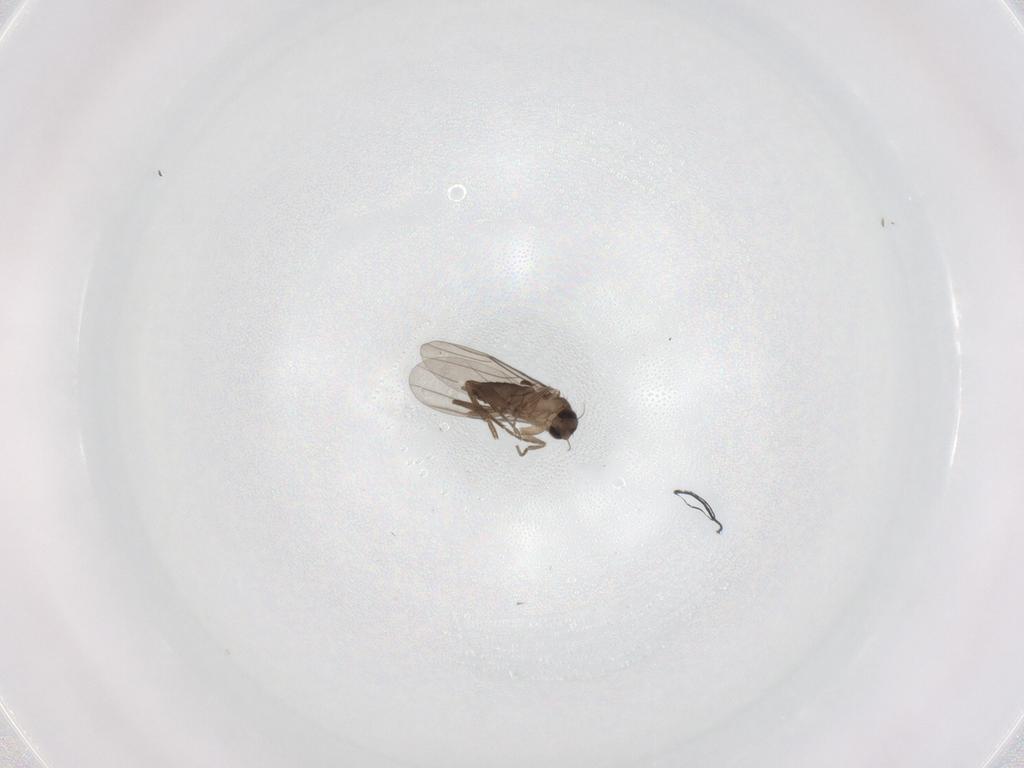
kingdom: Animalia
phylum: Arthropoda
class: Insecta
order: Diptera
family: Phoridae
